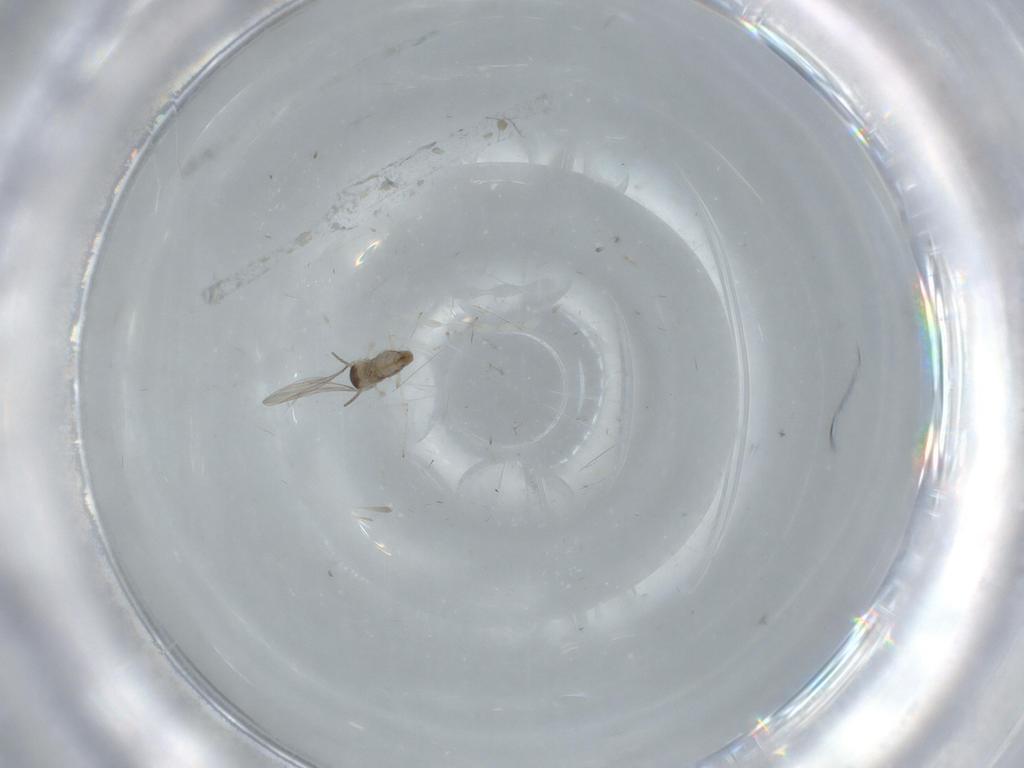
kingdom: Animalia
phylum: Arthropoda
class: Insecta
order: Diptera
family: Cecidomyiidae
